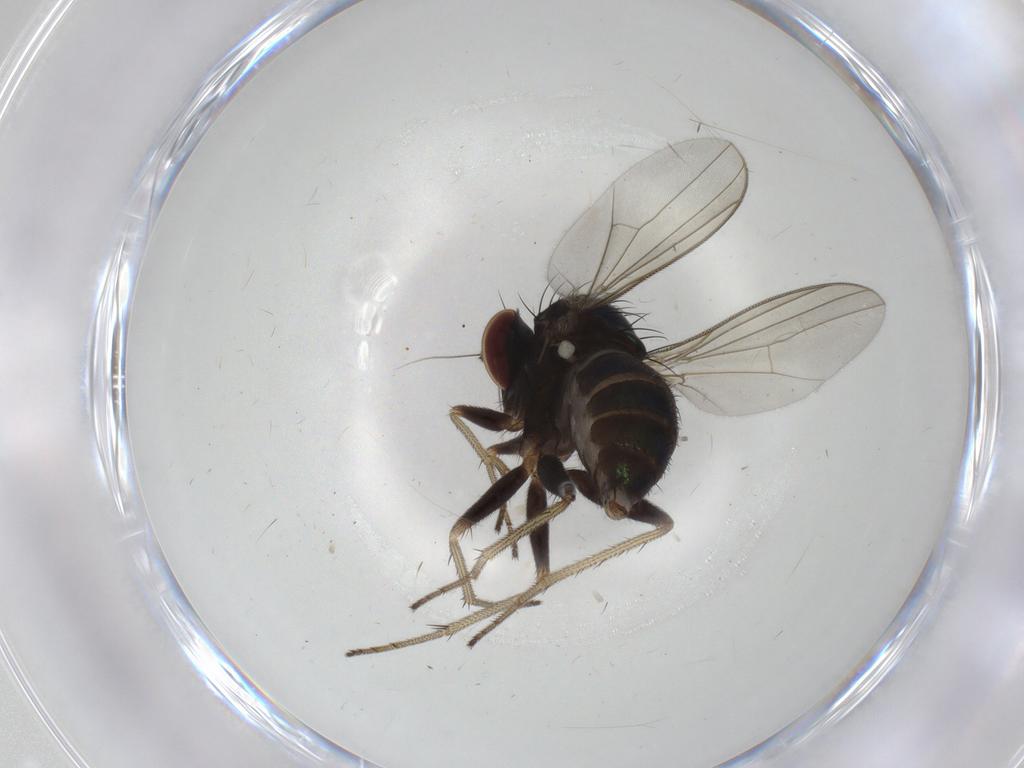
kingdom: Animalia
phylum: Arthropoda
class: Insecta
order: Diptera
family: Dolichopodidae
